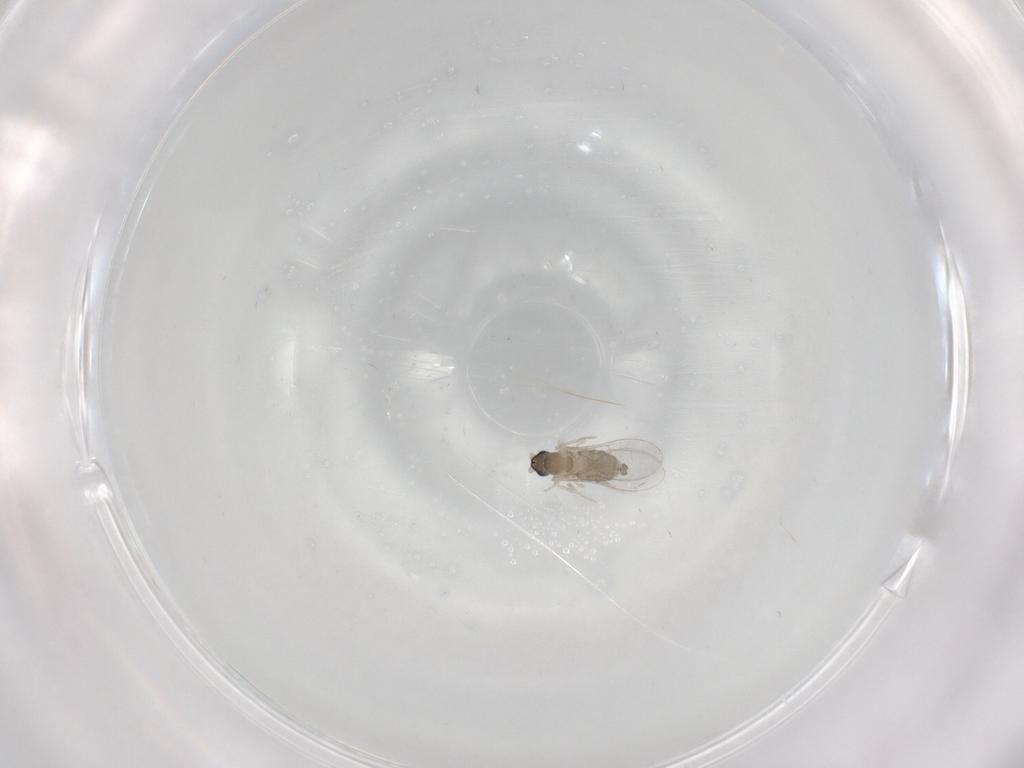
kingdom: Animalia
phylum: Arthropoda
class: Insecta
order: Diptera
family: Cecidomyiidae
